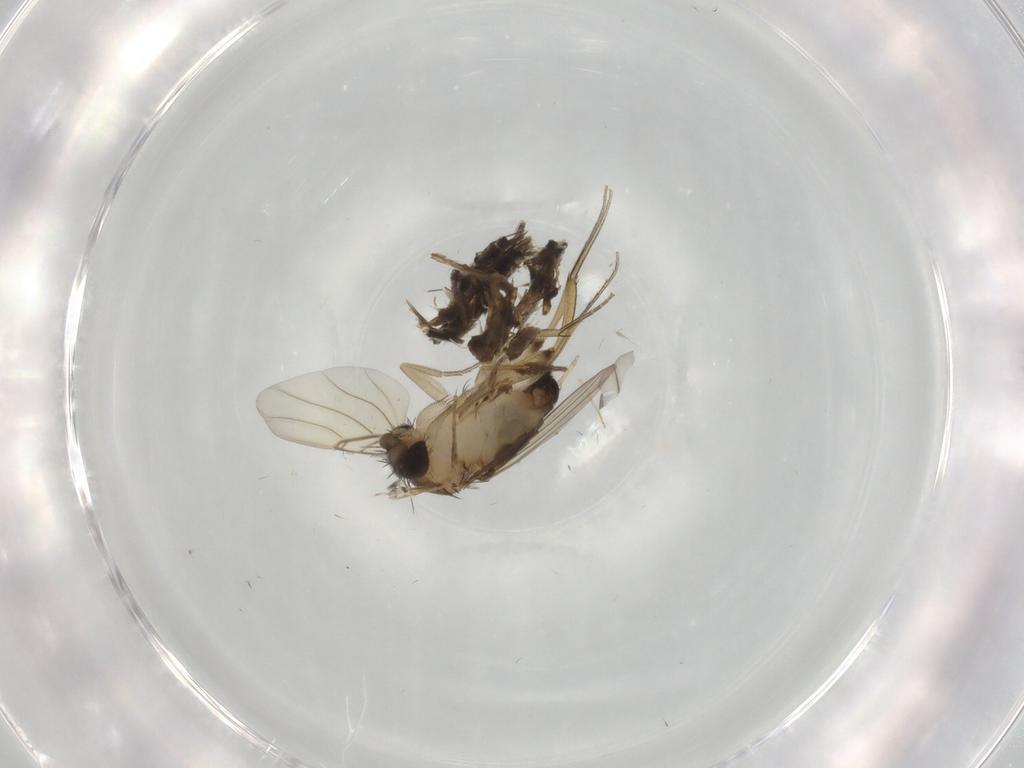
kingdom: Animalia
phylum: Arthropoda
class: Insecta
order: Diptera
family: Phoridae
